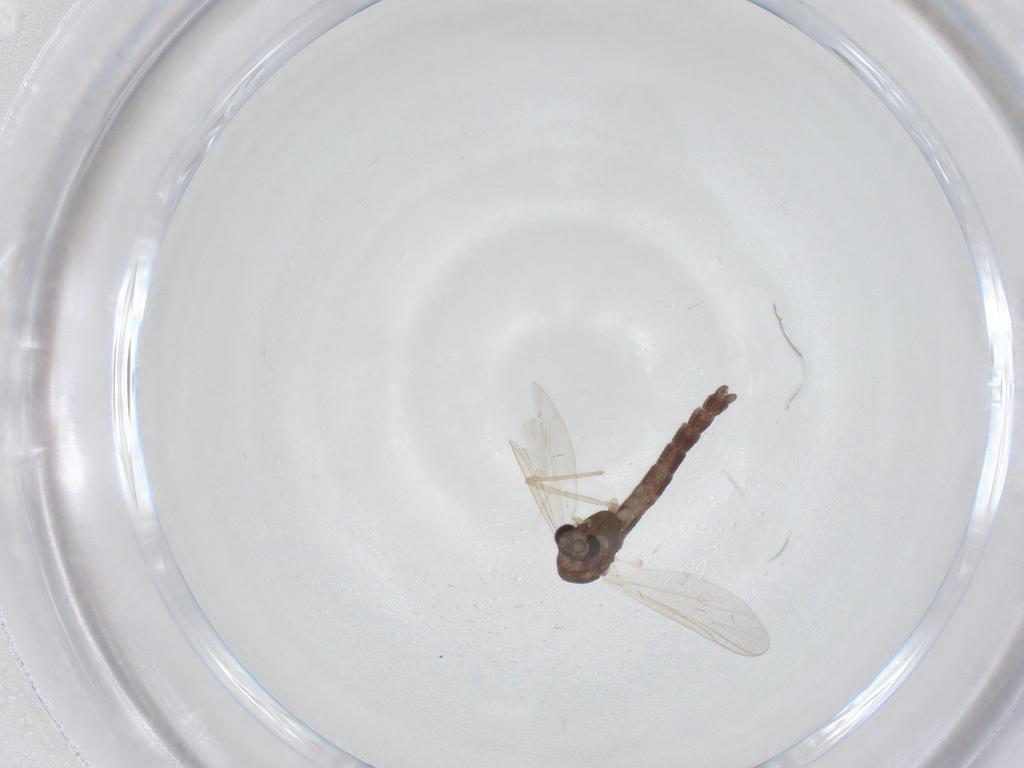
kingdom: Animalia
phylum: Arthropoda
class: Insecta
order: Diptera
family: Chironomidae
